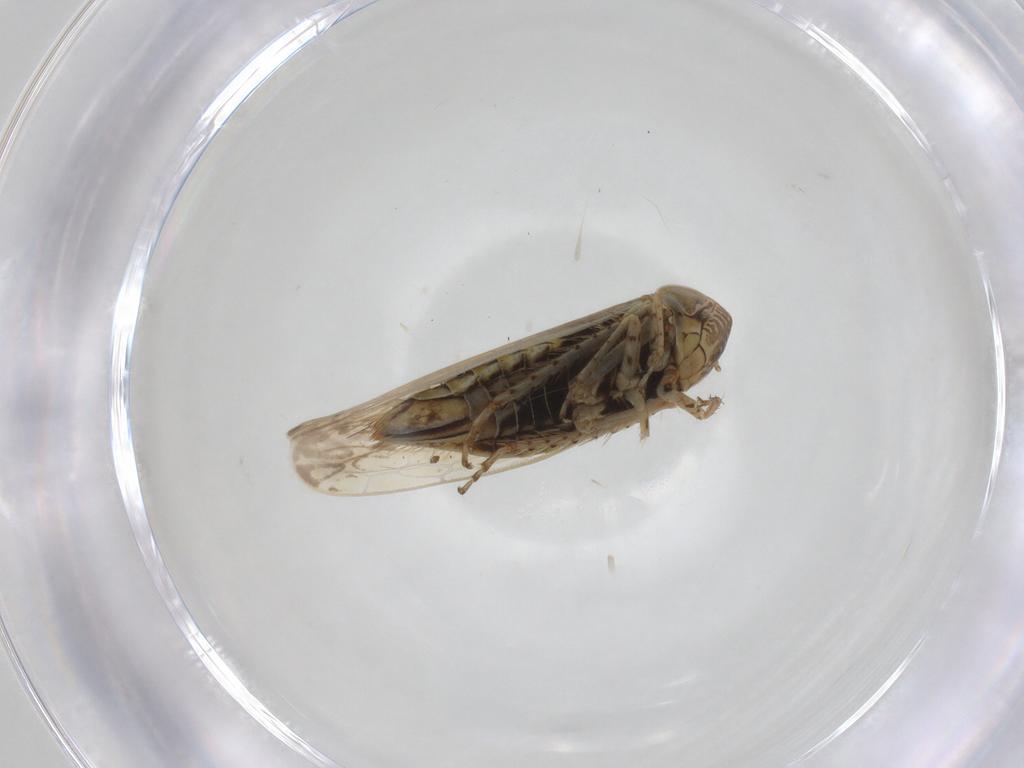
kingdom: Animalia
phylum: Arthropoda
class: Insecta
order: Hemiptera
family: Cicadellidae
